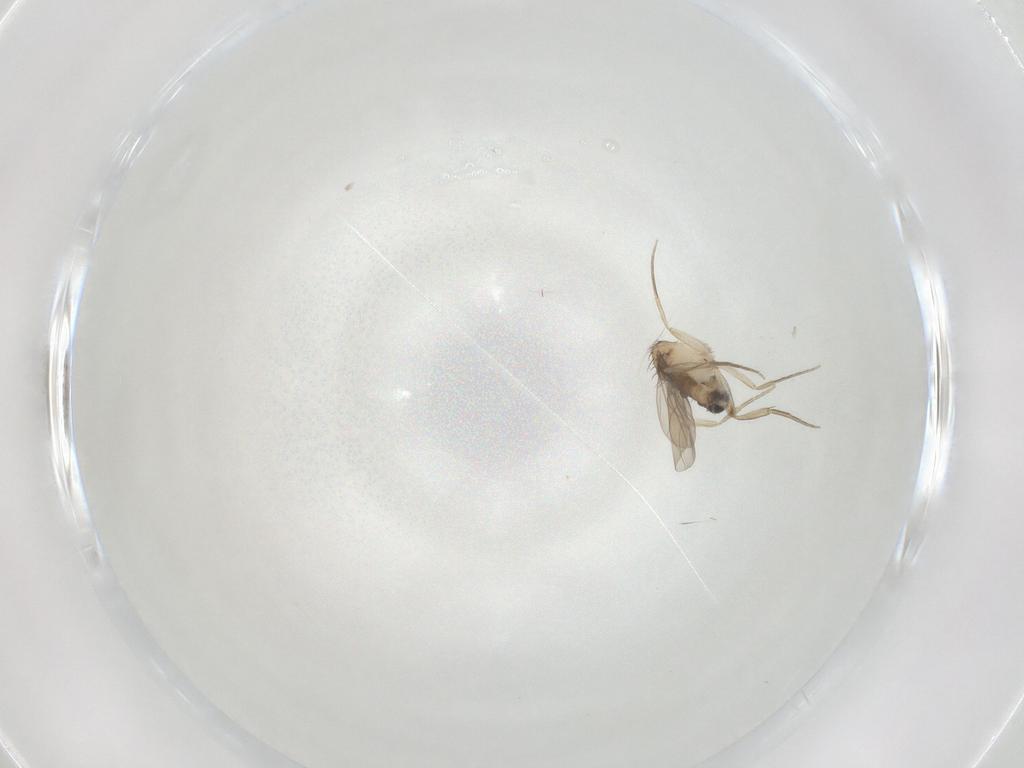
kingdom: Animalia
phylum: Arthropoda
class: Insecta
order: Diptera
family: Phoridae
